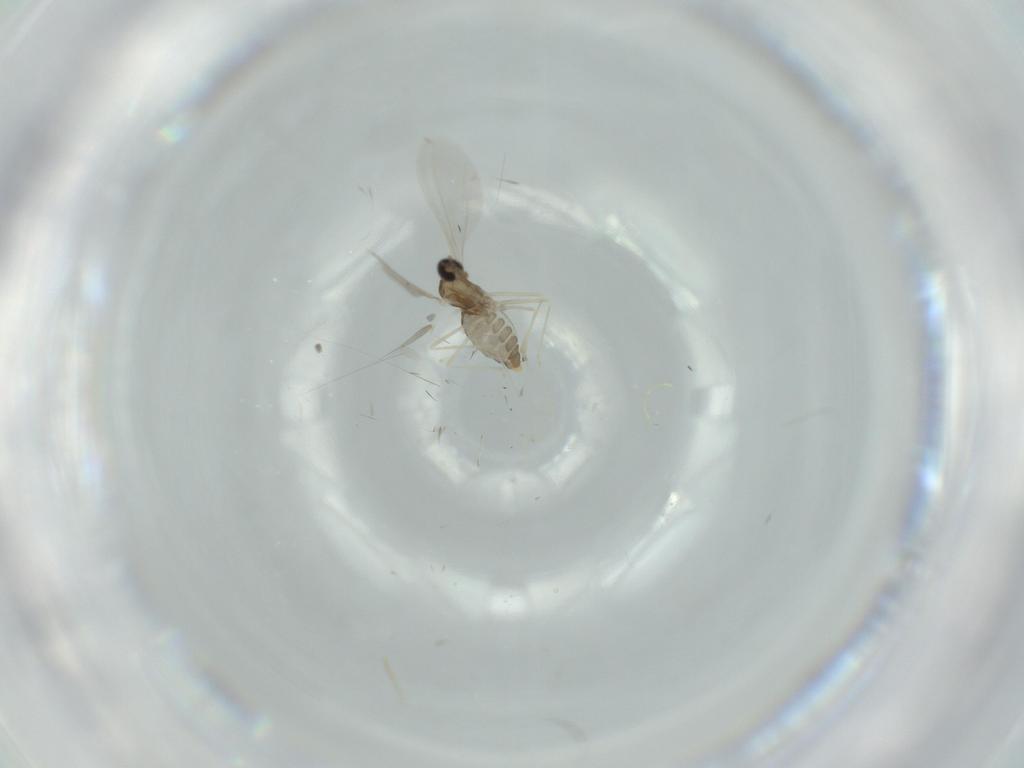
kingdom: Animalia
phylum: Arthropoda
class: Insecta
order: Diptera
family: Cecidomyiidae
